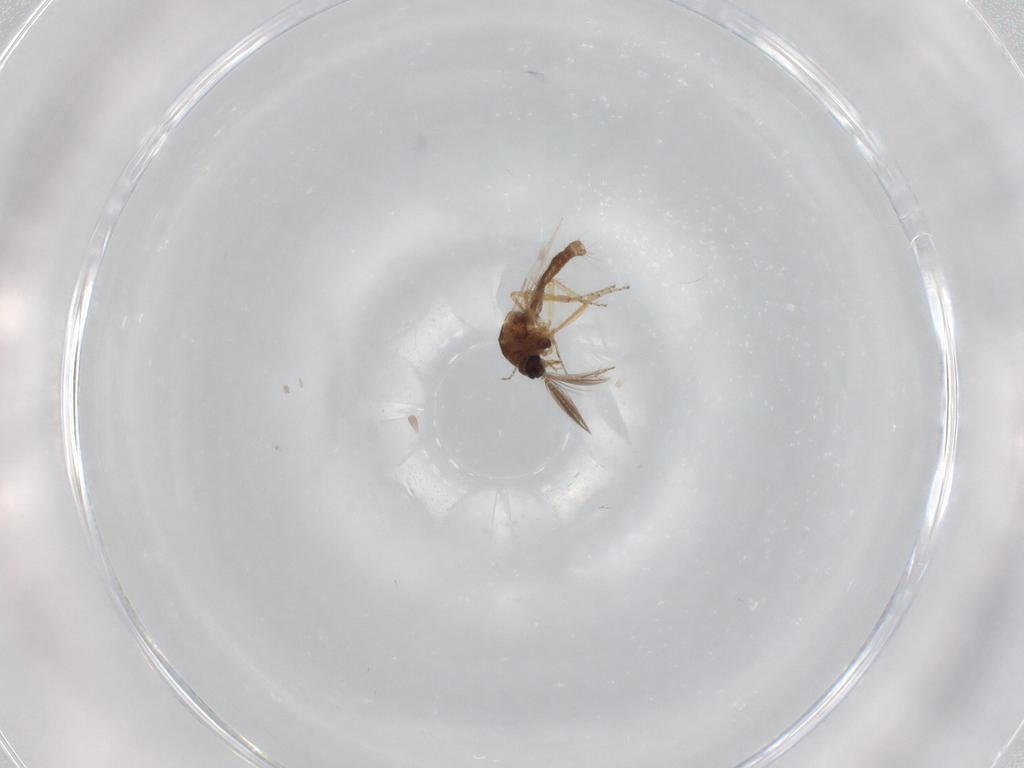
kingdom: Animalia
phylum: Arthropoda
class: Insecta
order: Diptera
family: Ceratopogonidae
